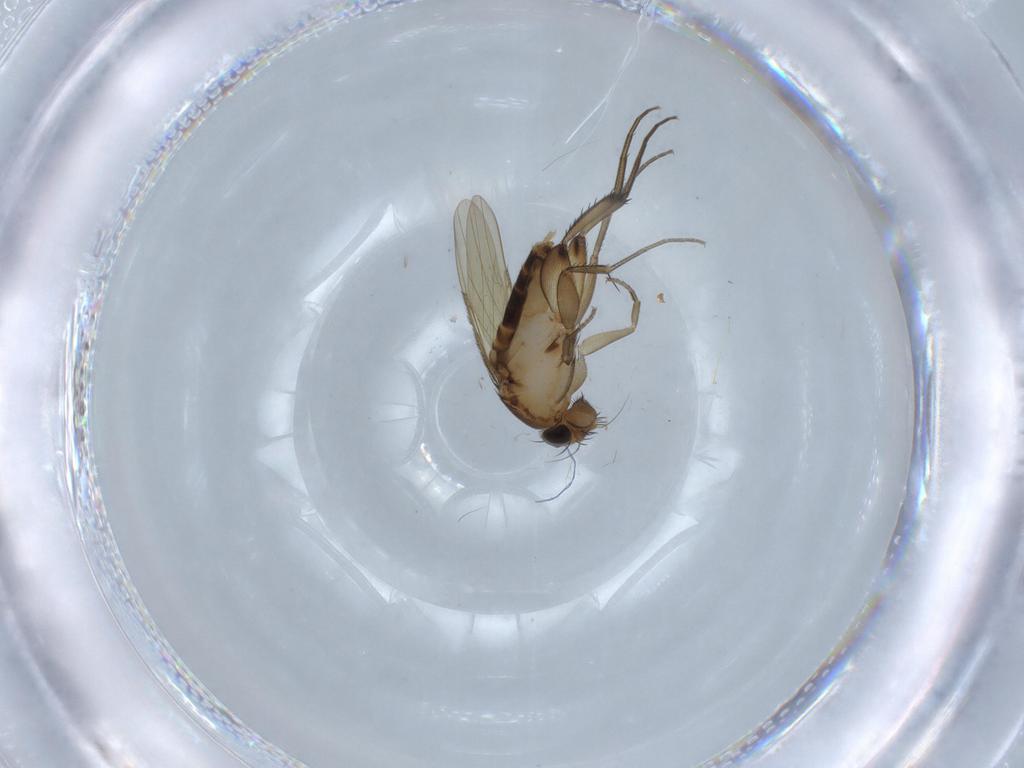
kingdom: Animalia
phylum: Arthropoda
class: Insecta
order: Diptera
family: Phoridae
